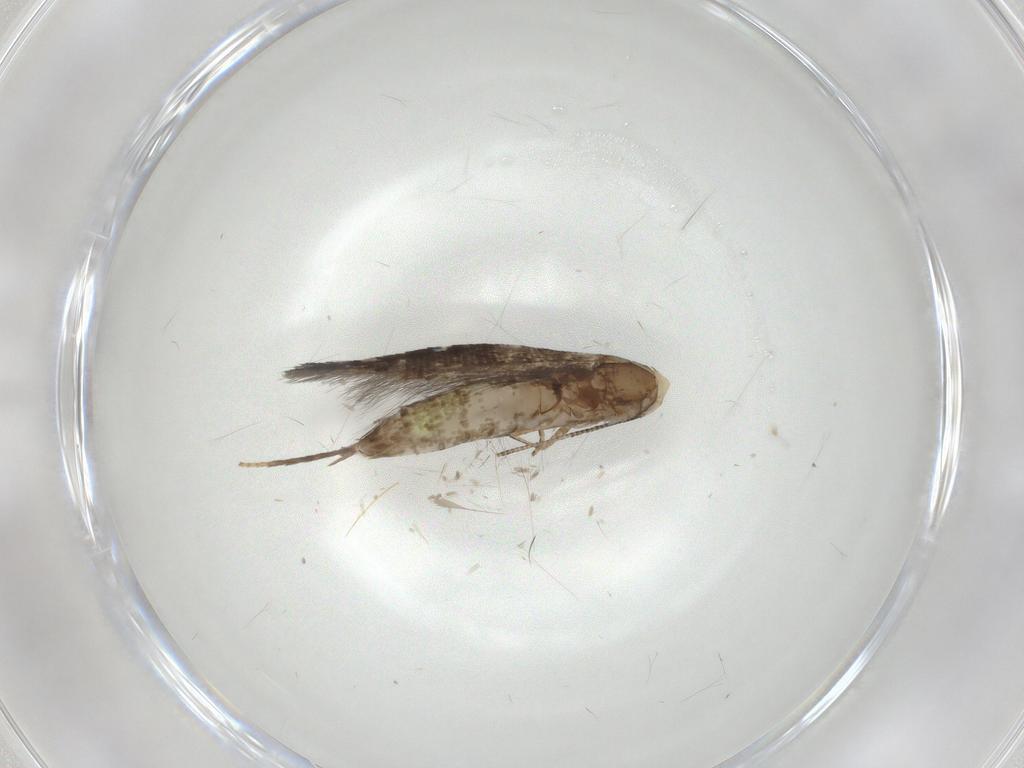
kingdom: Animalia
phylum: Arthropoda
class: Insecta
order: Lepidoptera
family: Ypsolophidae
